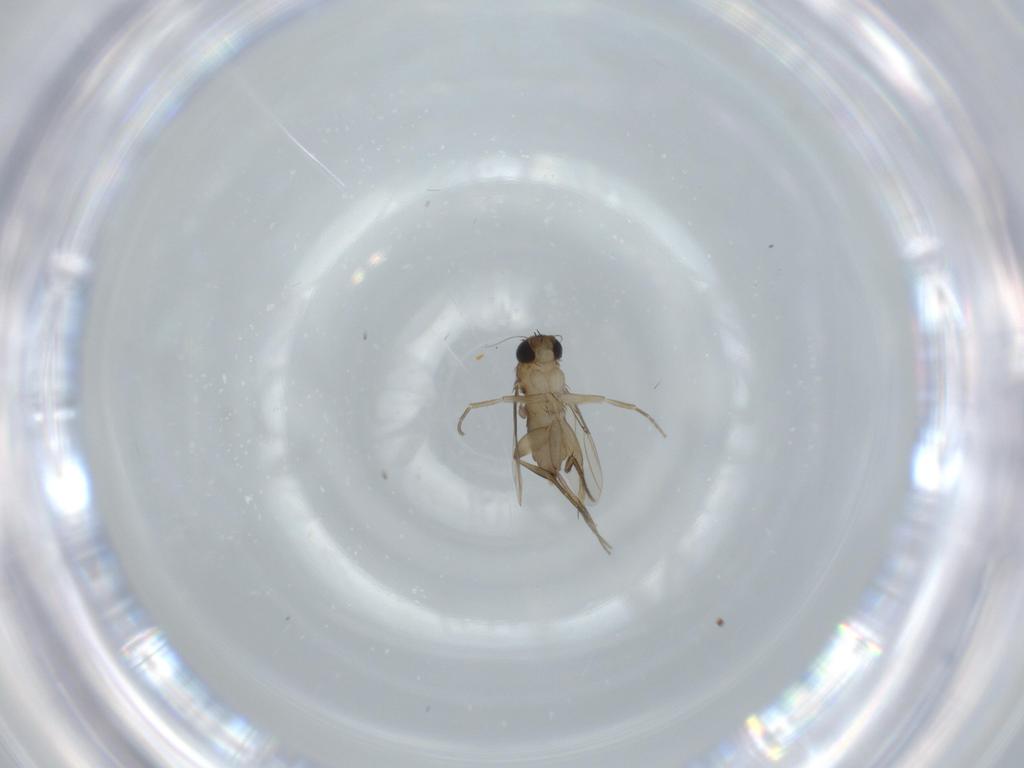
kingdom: Animalia
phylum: Arthropoda
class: Insecta
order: Diptera
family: Phoridae
